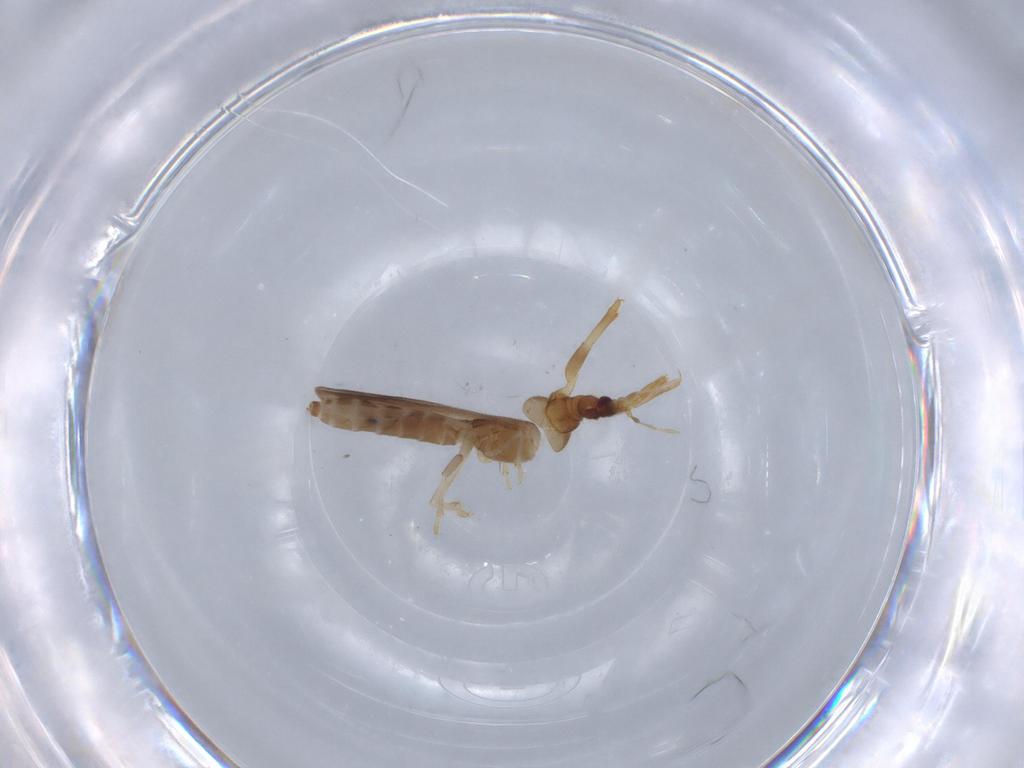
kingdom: Animalia
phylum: Arthropoda
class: Insecta
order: Hemiptera
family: Enicocephalidae
